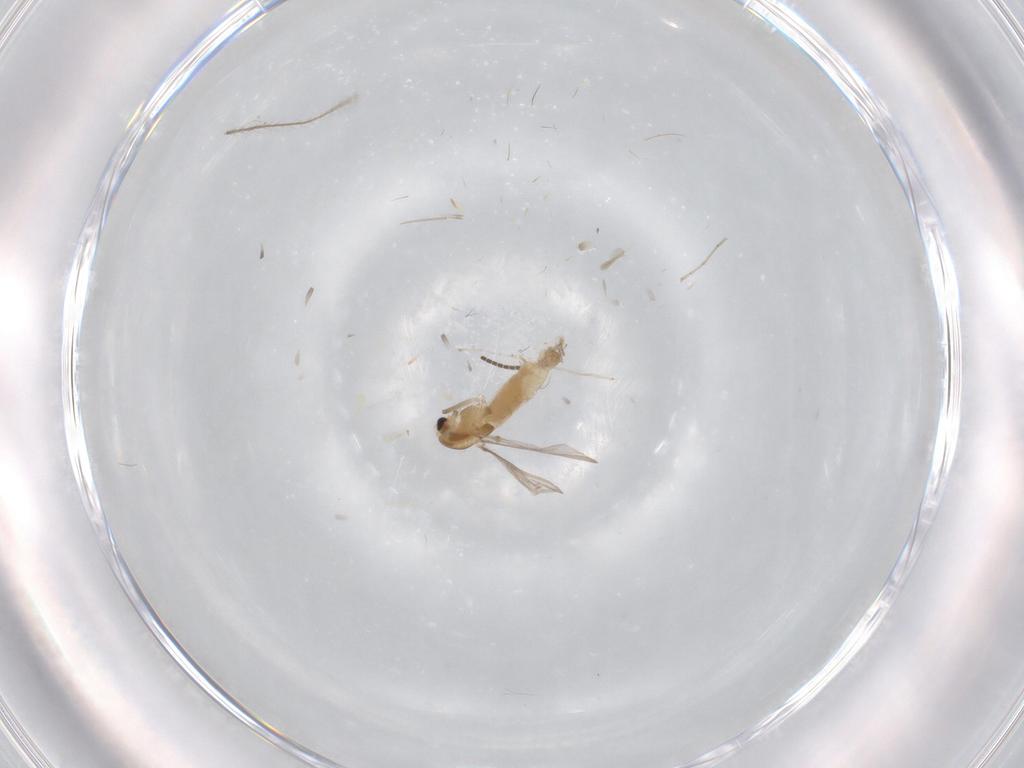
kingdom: Animalia
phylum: Arthropoda
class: Insecta
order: Diptera
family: Chironomidae
